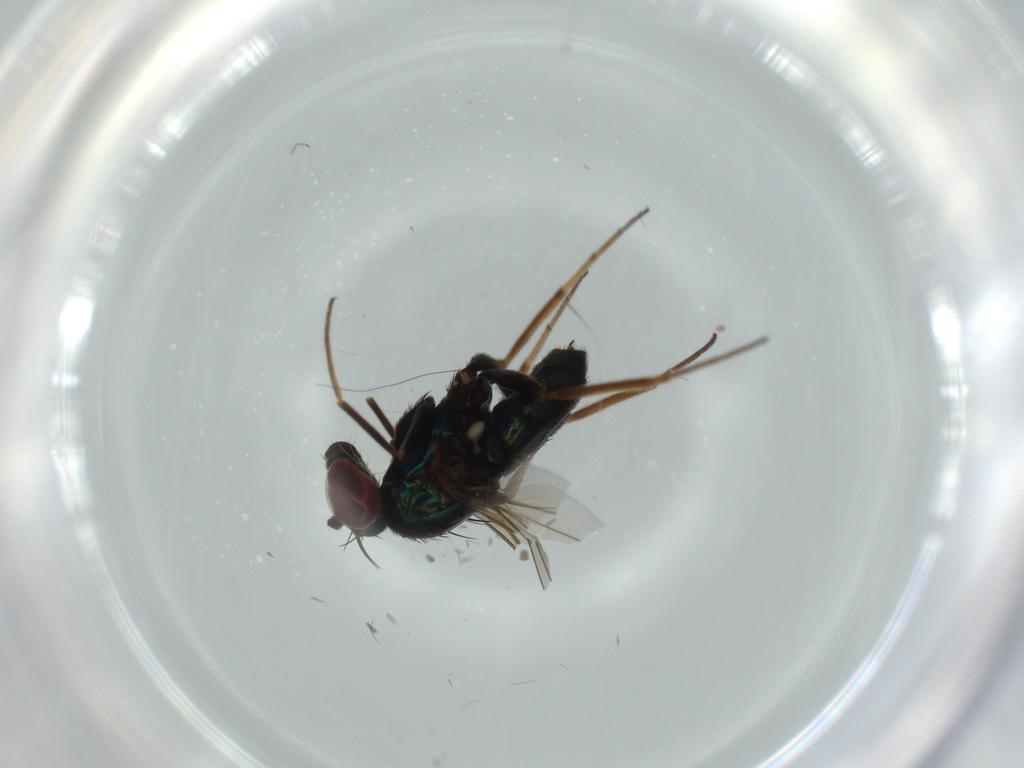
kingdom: Animalia
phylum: Arthropoda
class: Insecta
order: Diptera
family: Dolichopodidae
